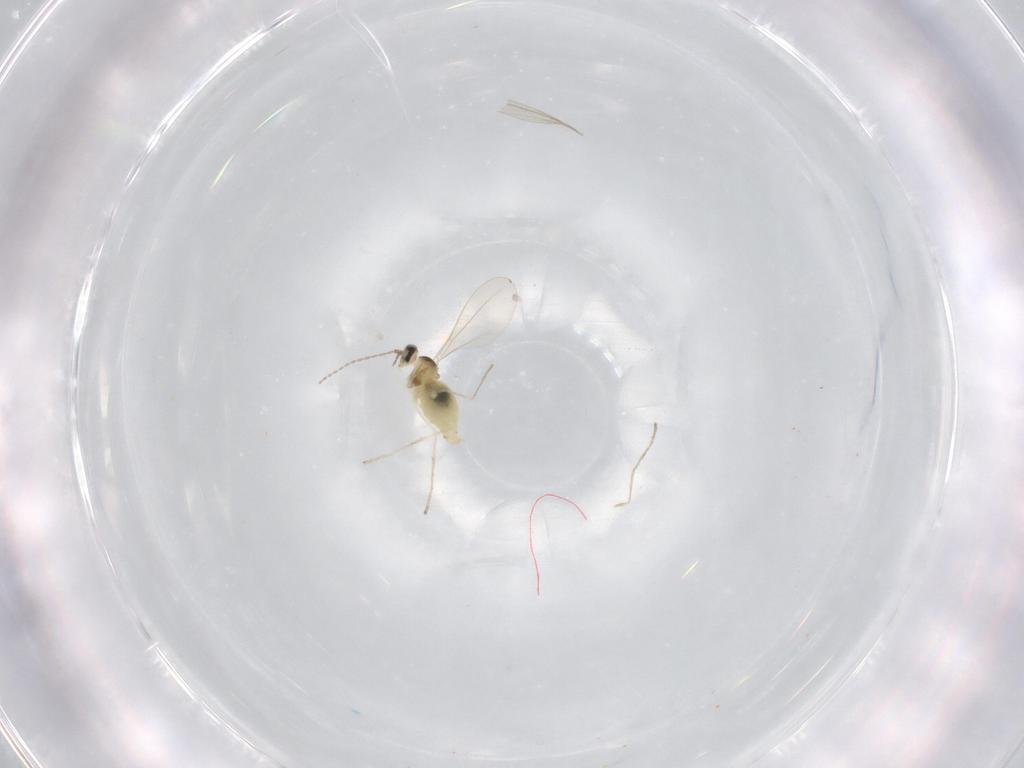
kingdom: Animalia
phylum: Arthropoda
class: Insecta
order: Diptera
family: Cecidomyiidae
